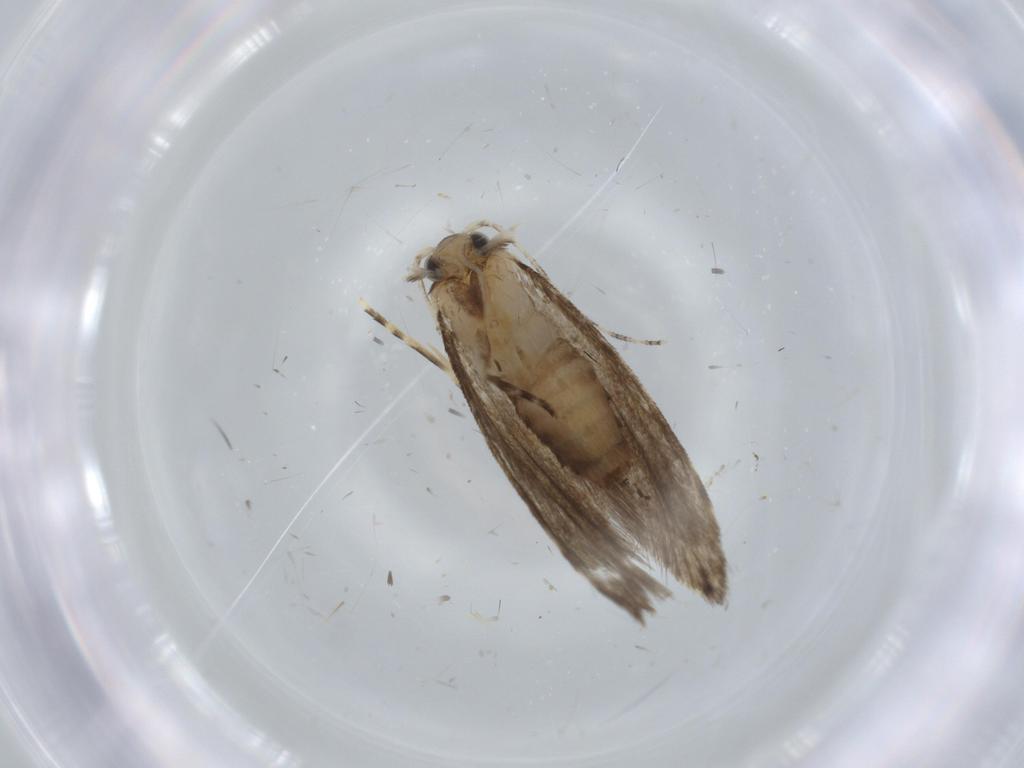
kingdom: Animalia
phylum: Arthropoda
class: Insecta
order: Lepidoptera
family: Tineidae
